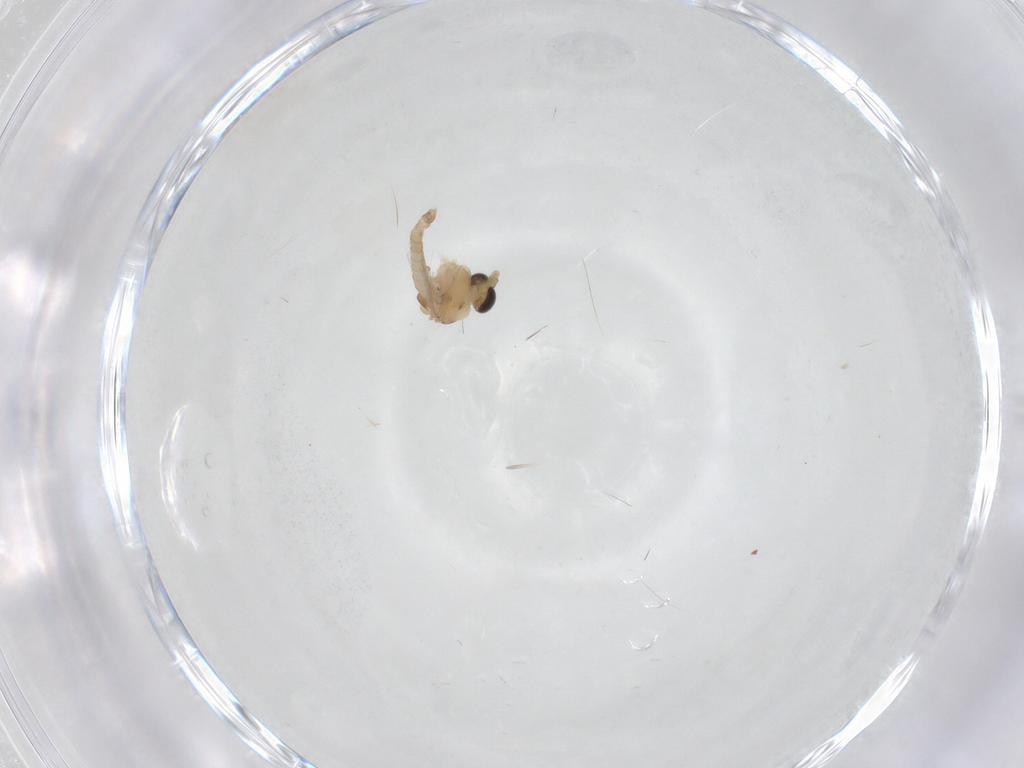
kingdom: Animalia
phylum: Arthropoda
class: Insecta
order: Diptera
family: Chironomidae
